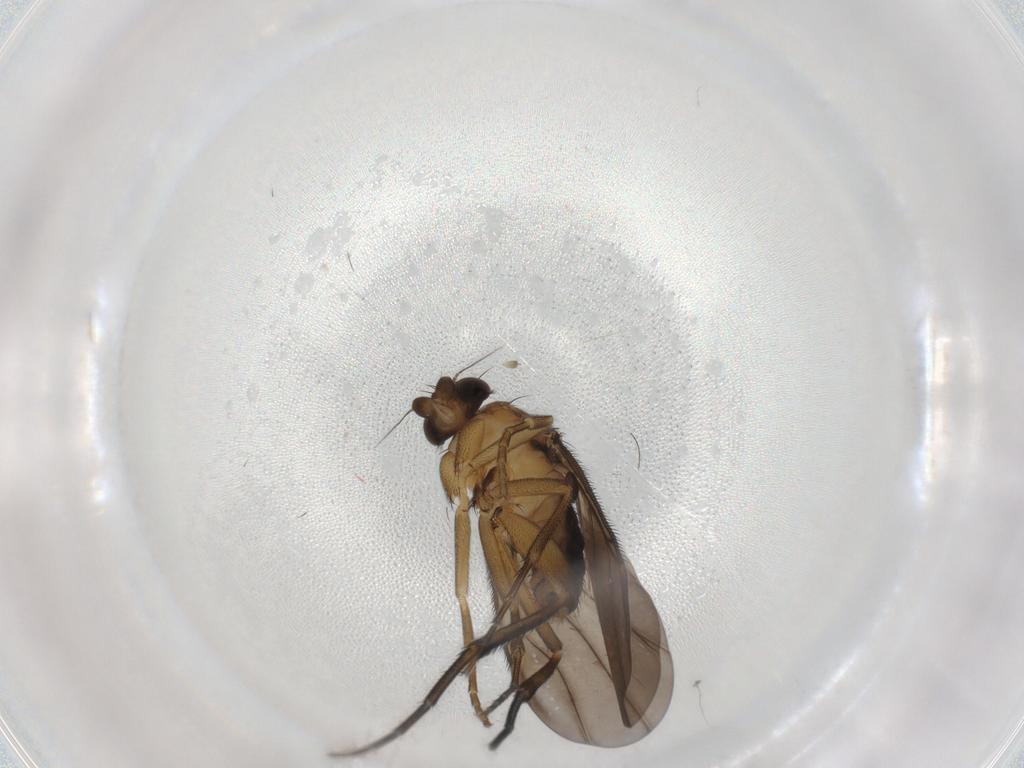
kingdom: Animalia
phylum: Arthropoda
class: Insecta
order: Diptera
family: Phoridae
